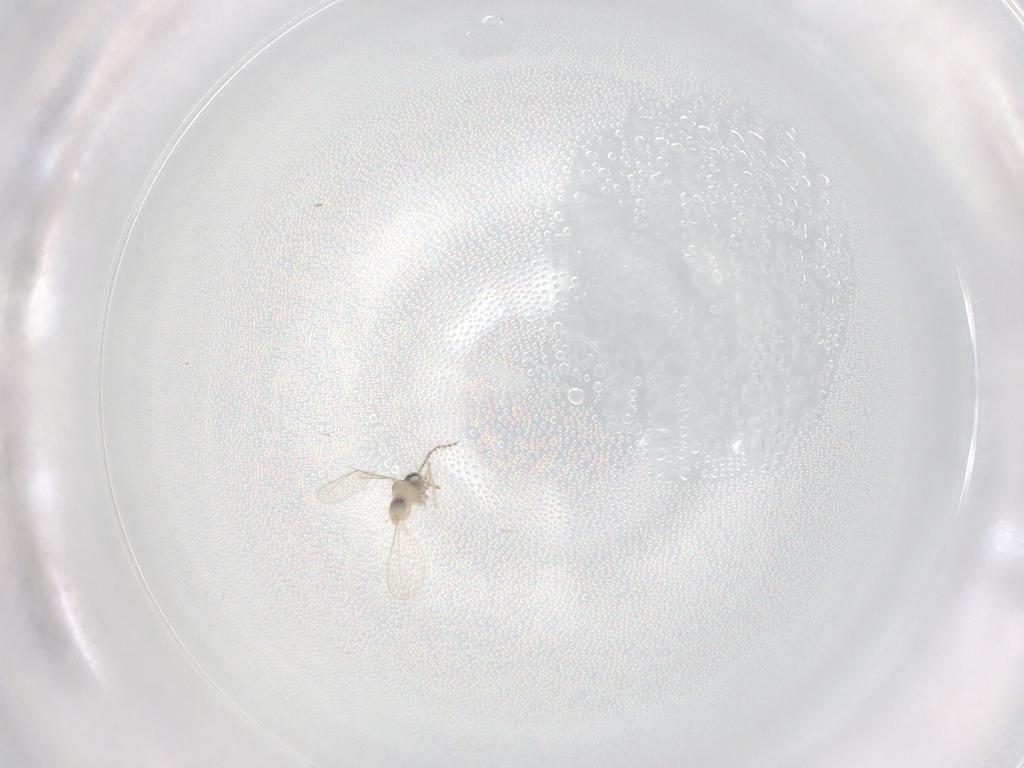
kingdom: Animalia
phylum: Arthropoda
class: Insecta
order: Diptera
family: Cecidomyiidae
